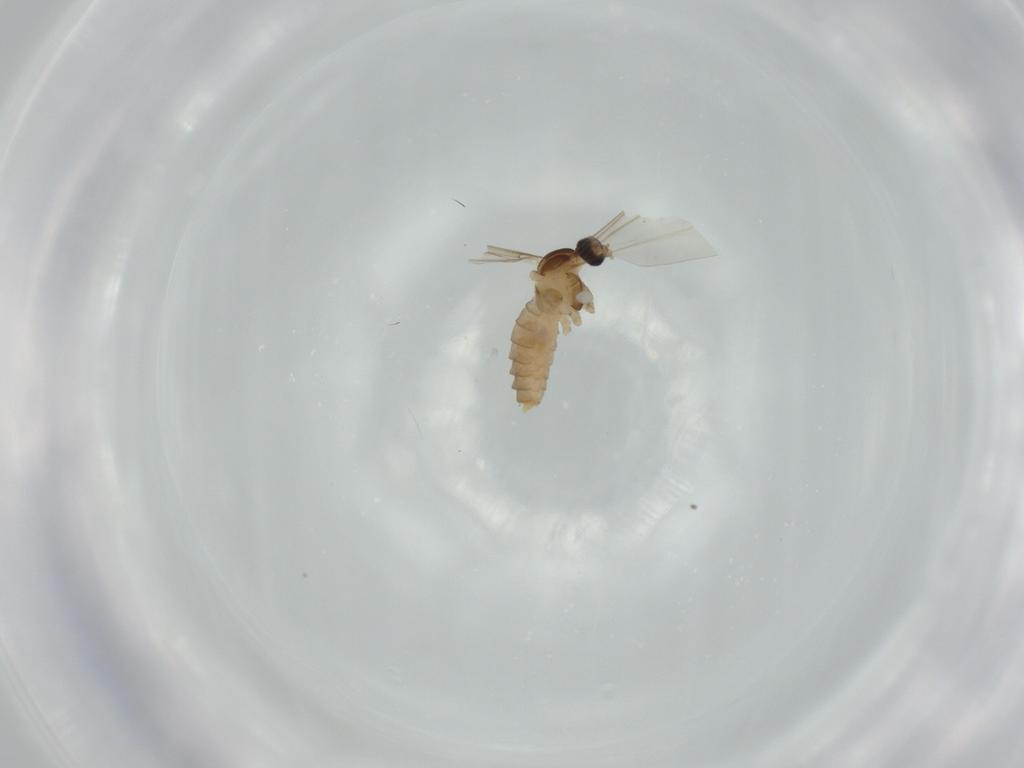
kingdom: Animalia
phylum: Arthropoda
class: Insecta
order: Diptera
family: Cecidomyiidae
